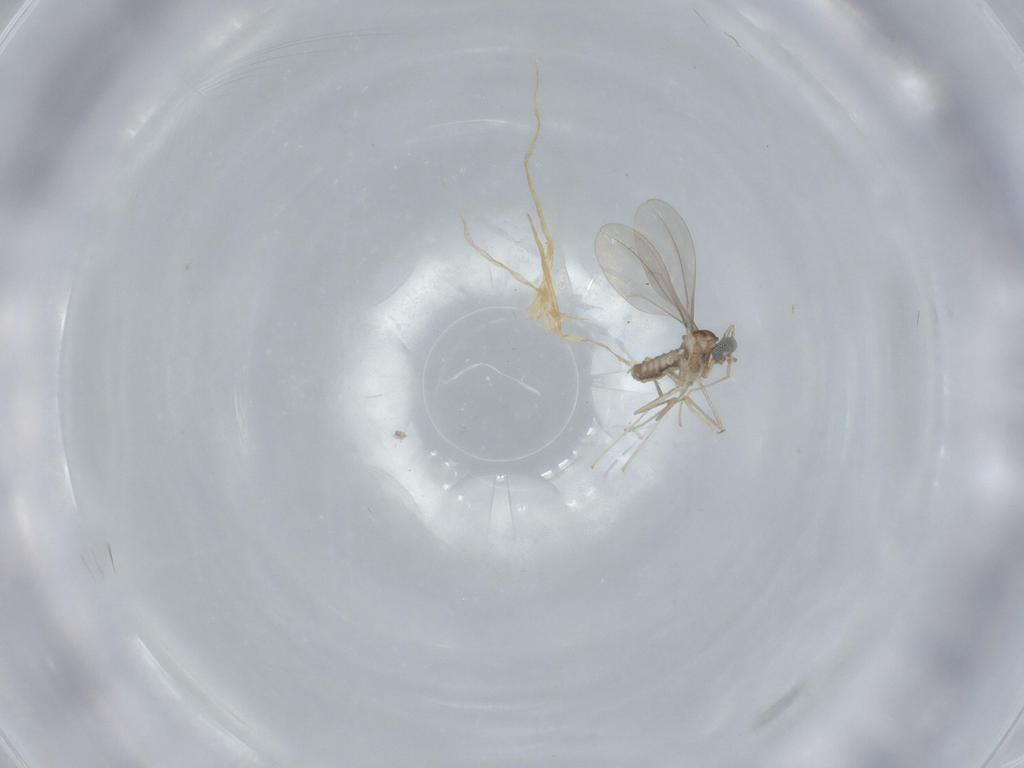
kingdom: Animalia
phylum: Arthropoda
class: Insecta
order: Diptera
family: Cecidomyiidae
